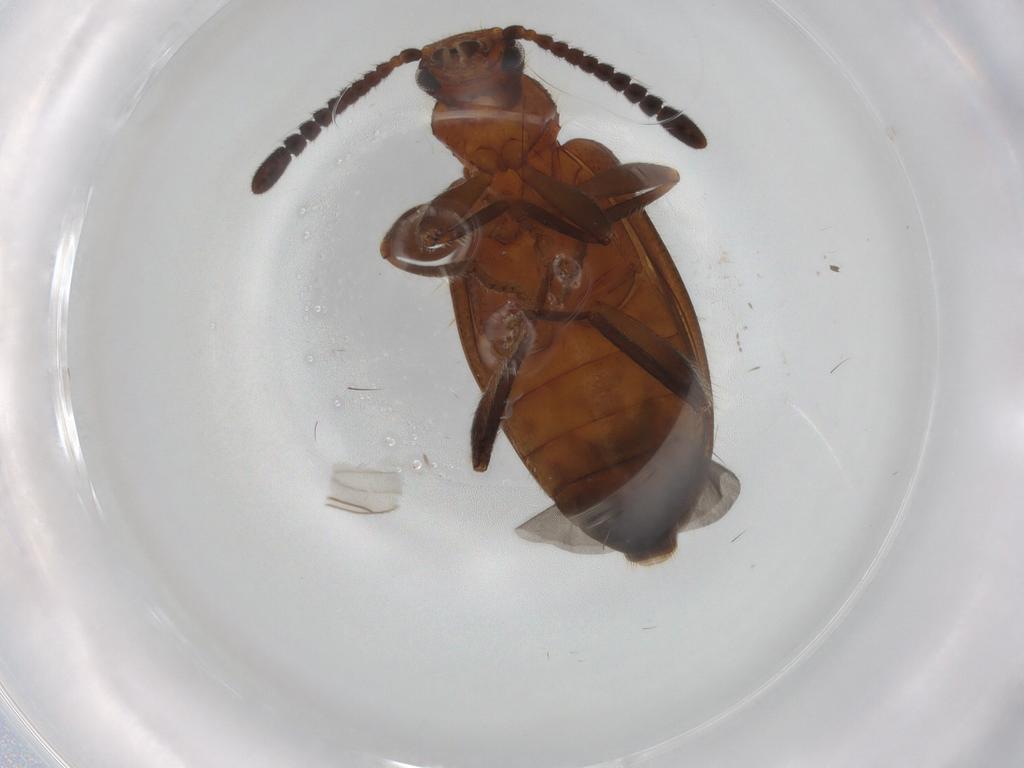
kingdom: Animalia
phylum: Arthropoda
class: Insecta
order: Coleoptera
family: Tenebrionidae
